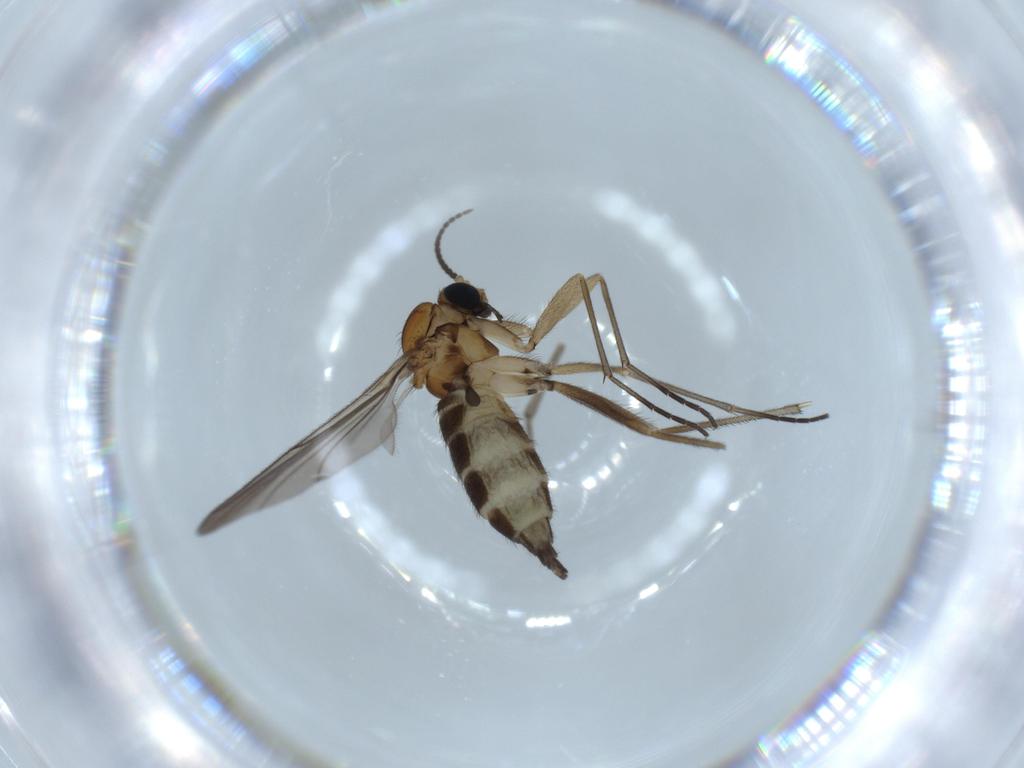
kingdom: Animalia
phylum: Arthropoda
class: Insecta
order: Diptera
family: Sciaridae
